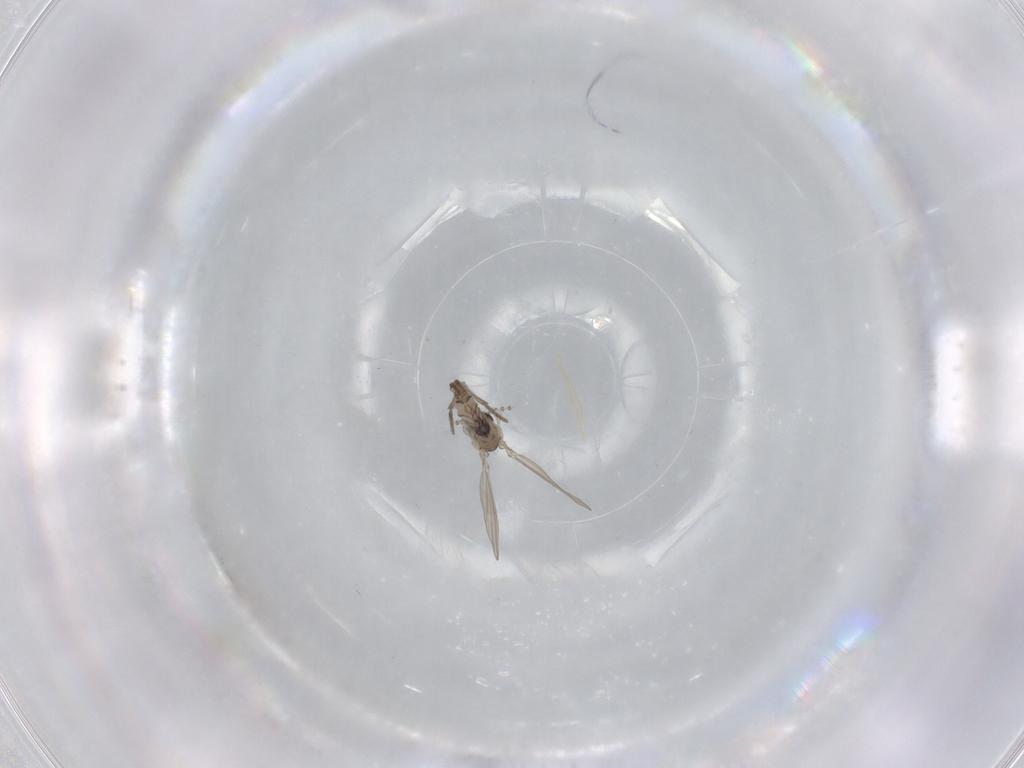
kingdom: Animalia
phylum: Arthropoda
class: Insecta
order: Diptera
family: Psychodidae
